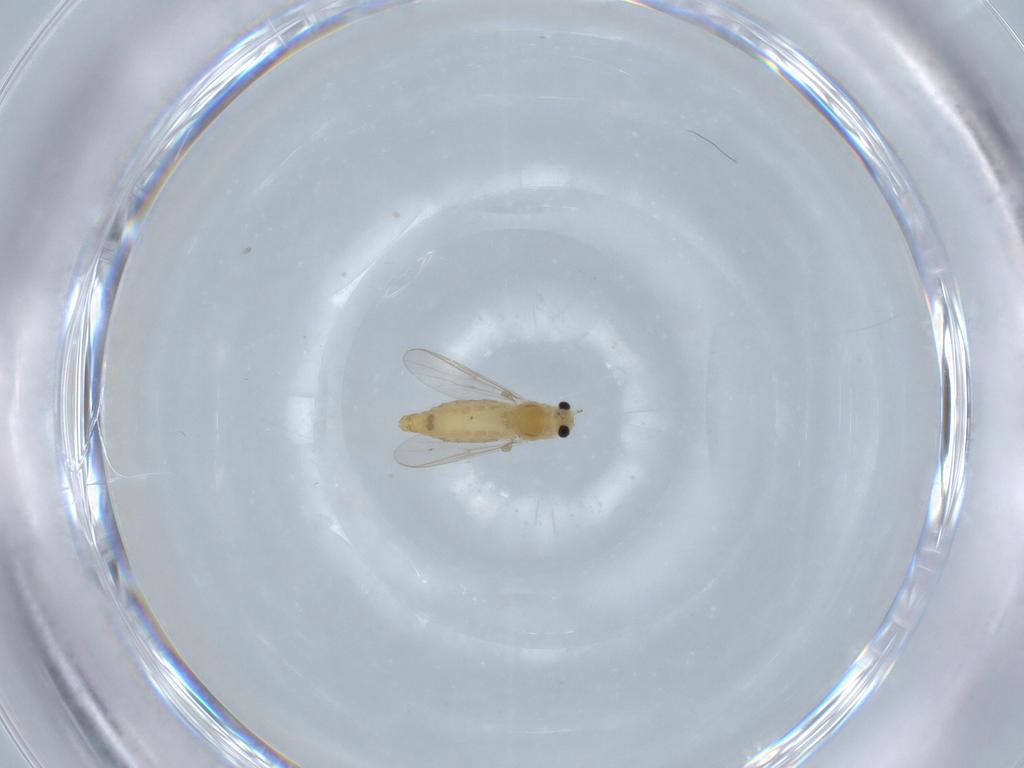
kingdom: Animalia
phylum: Arthropoda
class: Insecta
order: Diptera
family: Chironomidae
